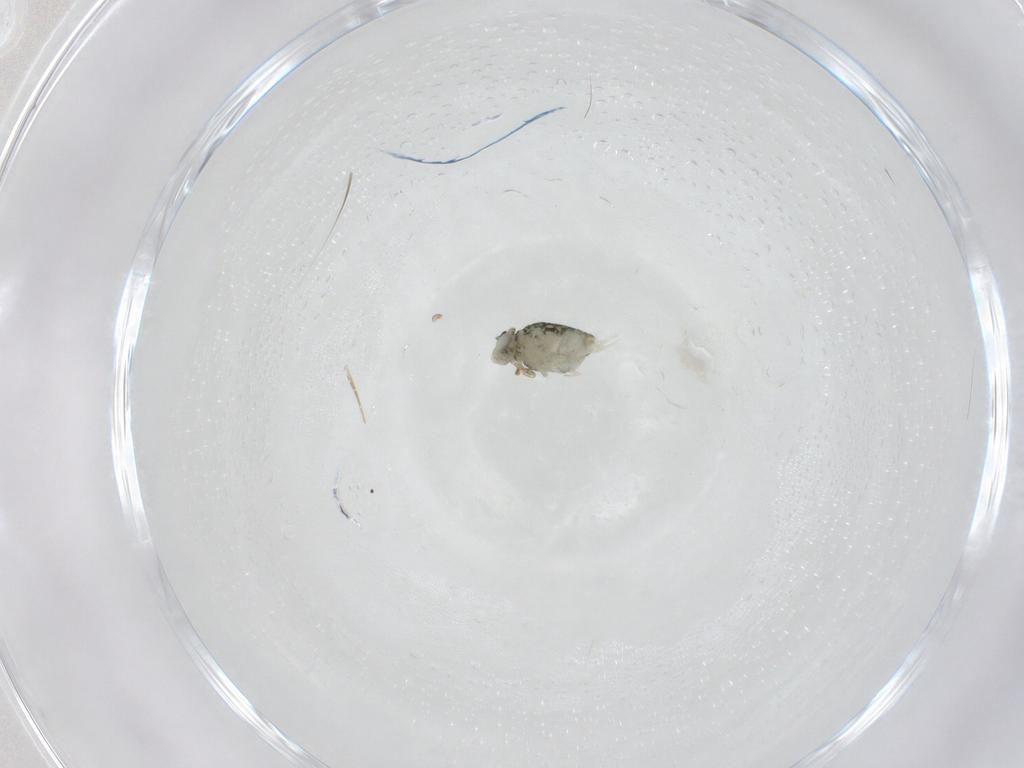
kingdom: Animalia
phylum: Arthropoda
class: Collembola
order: Symphypleona
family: Katiannidae
